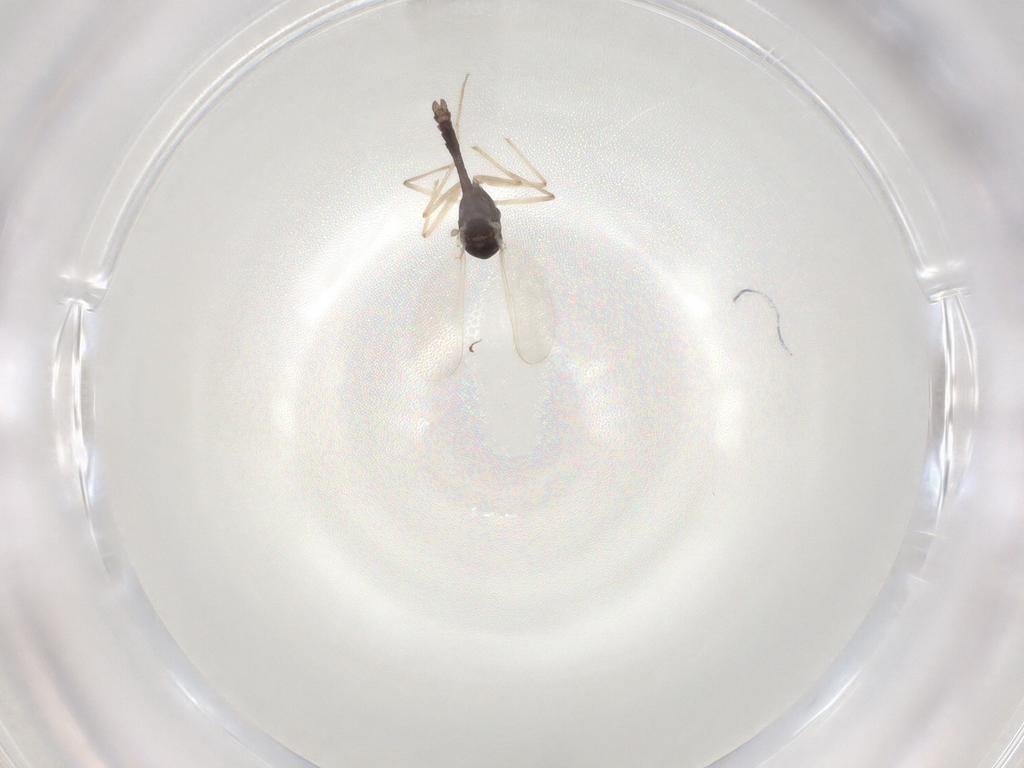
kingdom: Animalia
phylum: Arthropoda
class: Insecta
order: Diptera
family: Chironomidae
